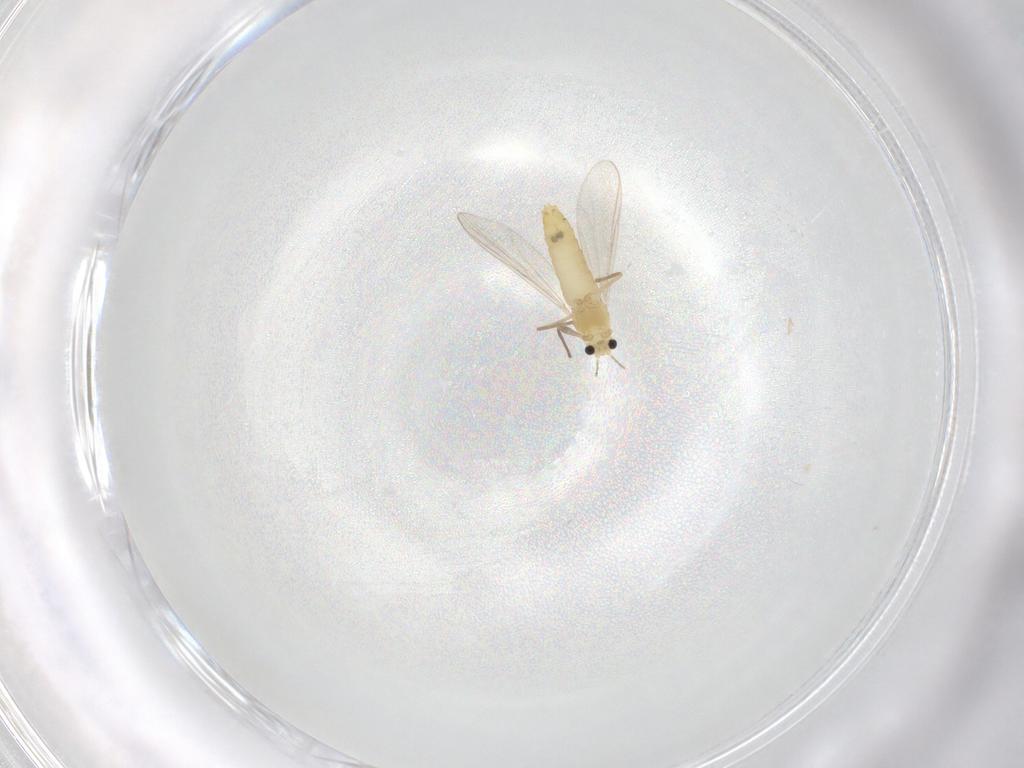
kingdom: Animalia
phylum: Arthropoda
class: Insecta
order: Diptera
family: Chironomidae
